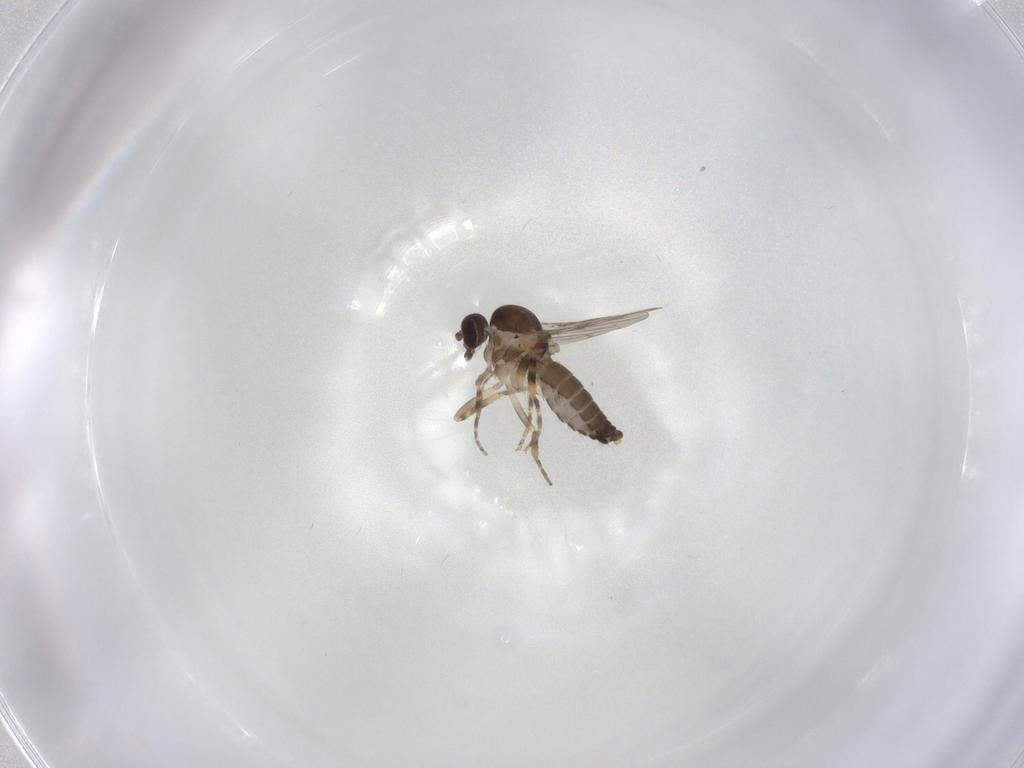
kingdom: Animalia
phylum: Arthropoda
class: Insecta
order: Diptera
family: Ceratopogonidae
